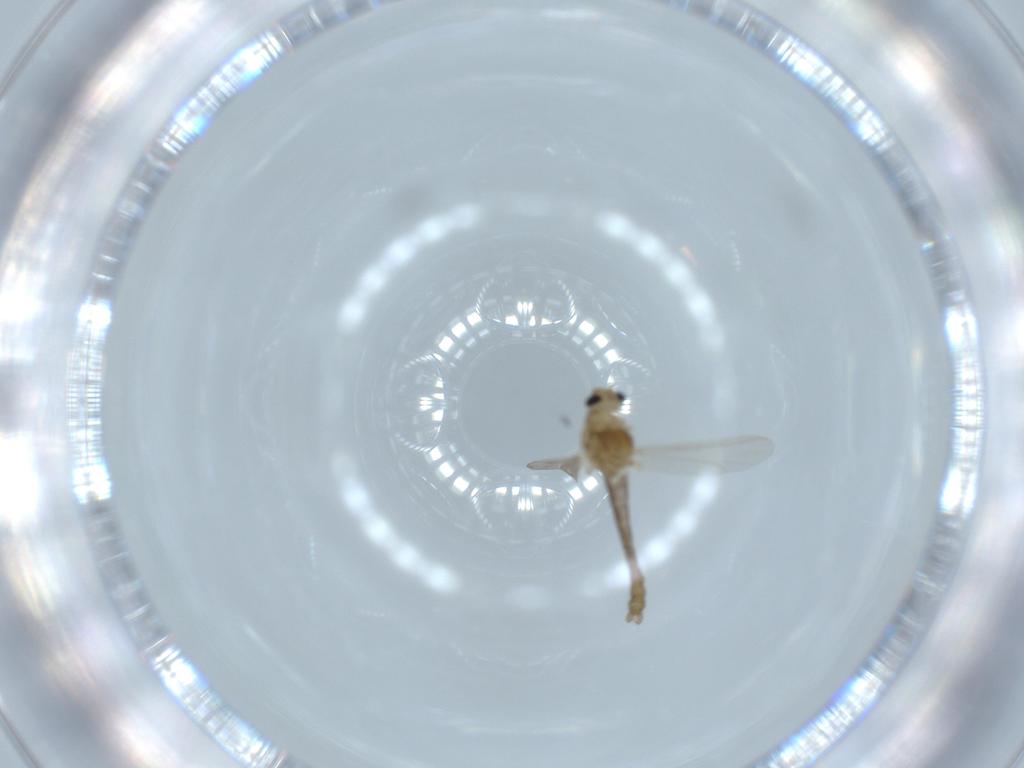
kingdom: Animalia
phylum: Arthropoda
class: Insecta
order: Diptera
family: Chironomidae
